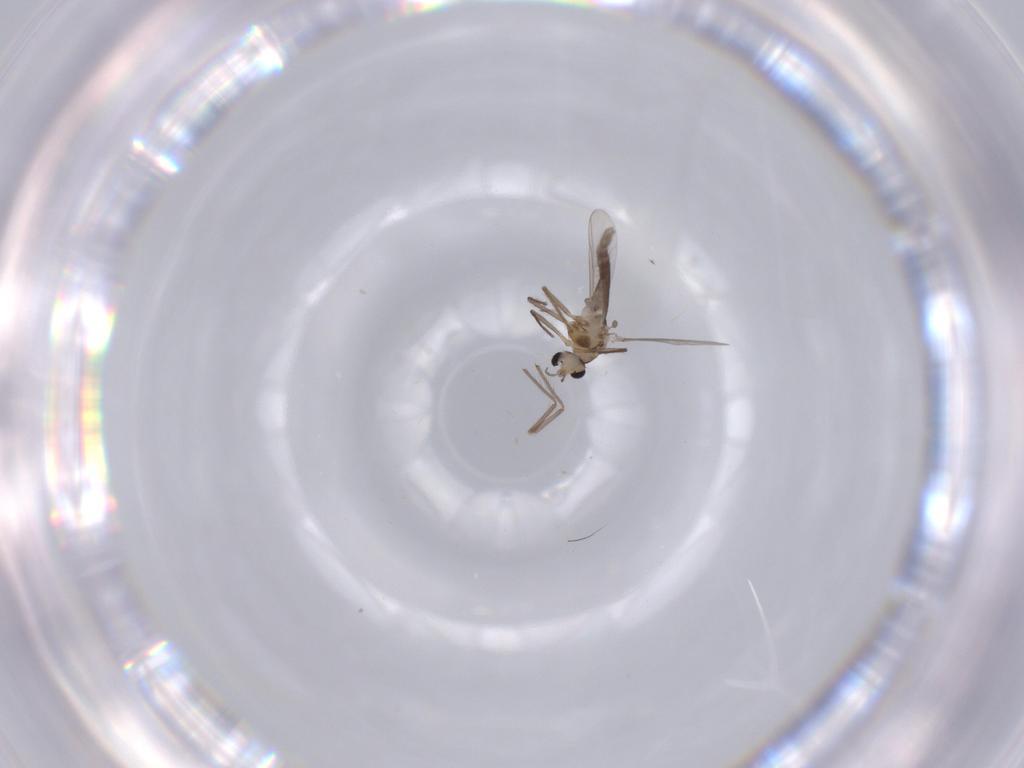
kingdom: Animalia
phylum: Arthropoda
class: Insecta
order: Diptera
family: Chironomidae
